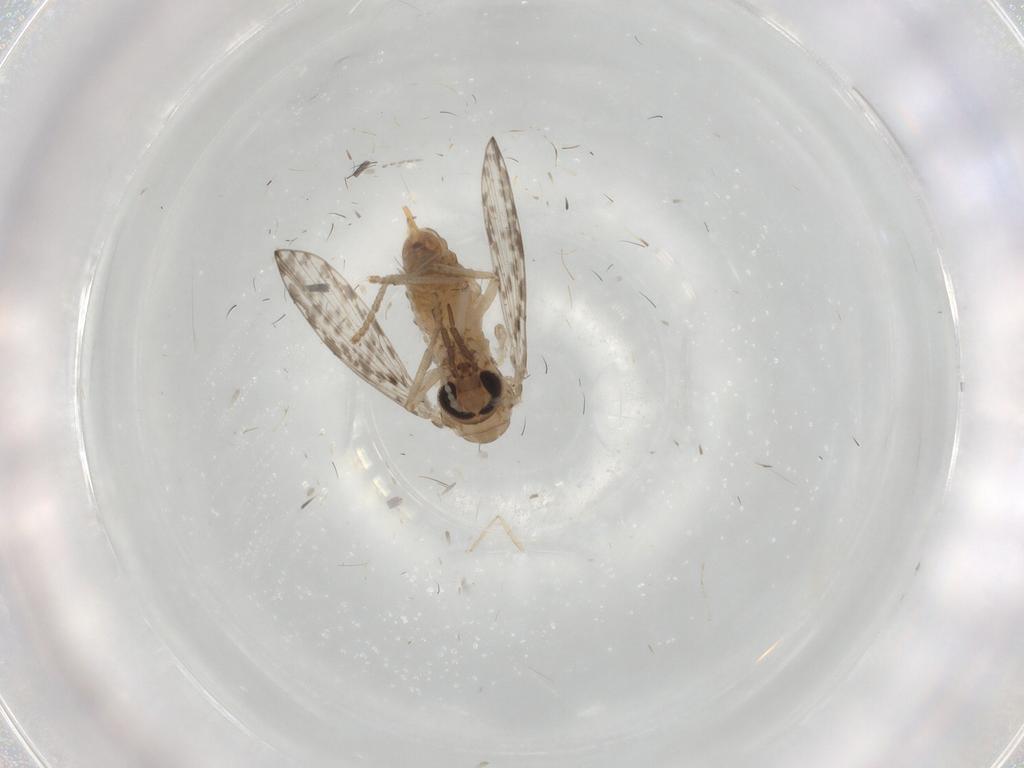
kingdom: Animalia
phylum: Arthropoda
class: Insecta
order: Diptera
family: Psychodidae
